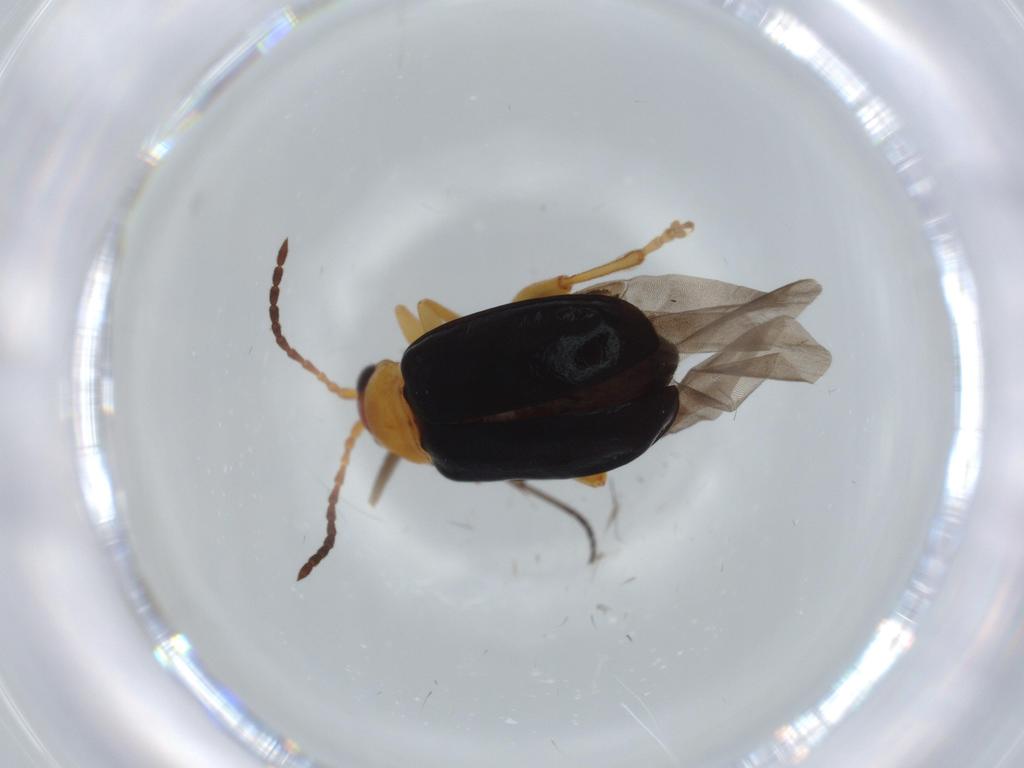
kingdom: Animalia
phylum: Arthropoda
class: Insecta
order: Coleoptera
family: Chrysomelidae
